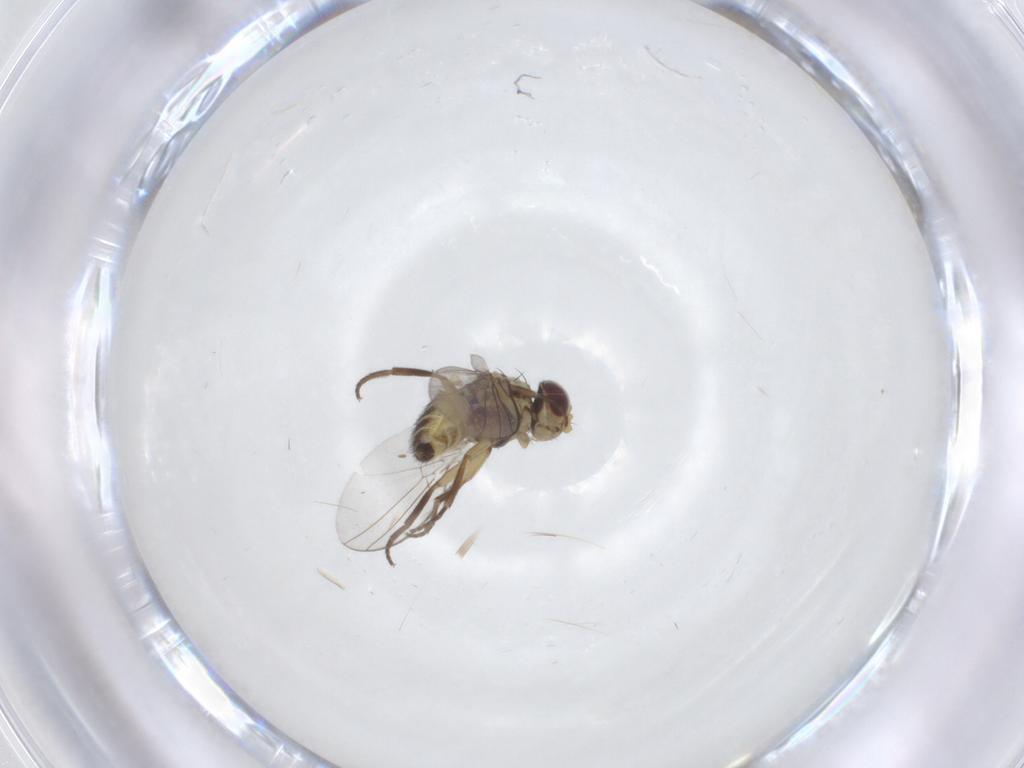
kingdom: Animalia
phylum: Arthropoda
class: Insecta
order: Diptera
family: Agromyzidae
